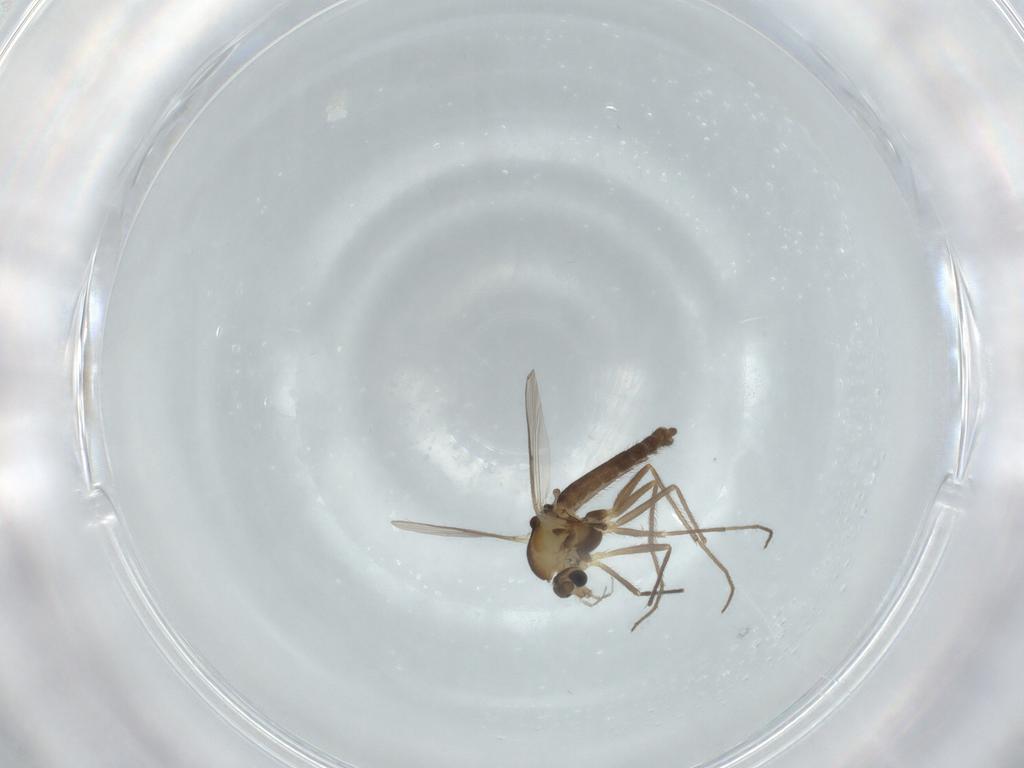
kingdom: Animalia
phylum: Arthropoda
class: Insecta
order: Diptera
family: Chironomidae
